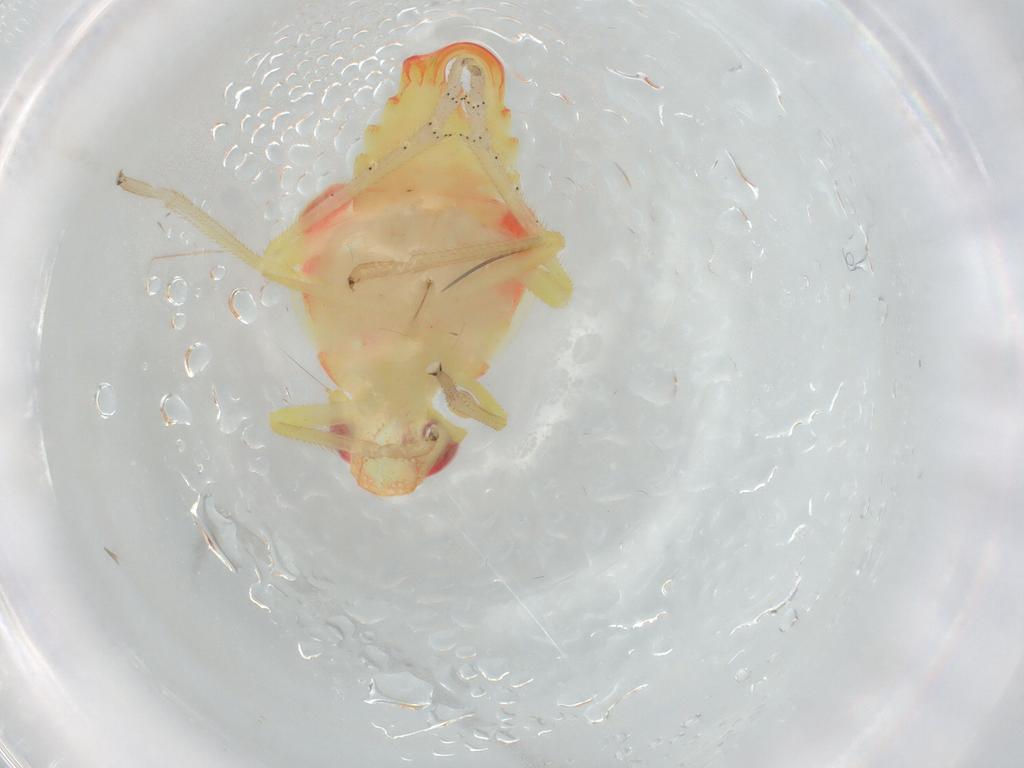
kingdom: Animalia
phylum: Arthropoda
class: Insecta
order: Hemiptera
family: Tropiduchidae
